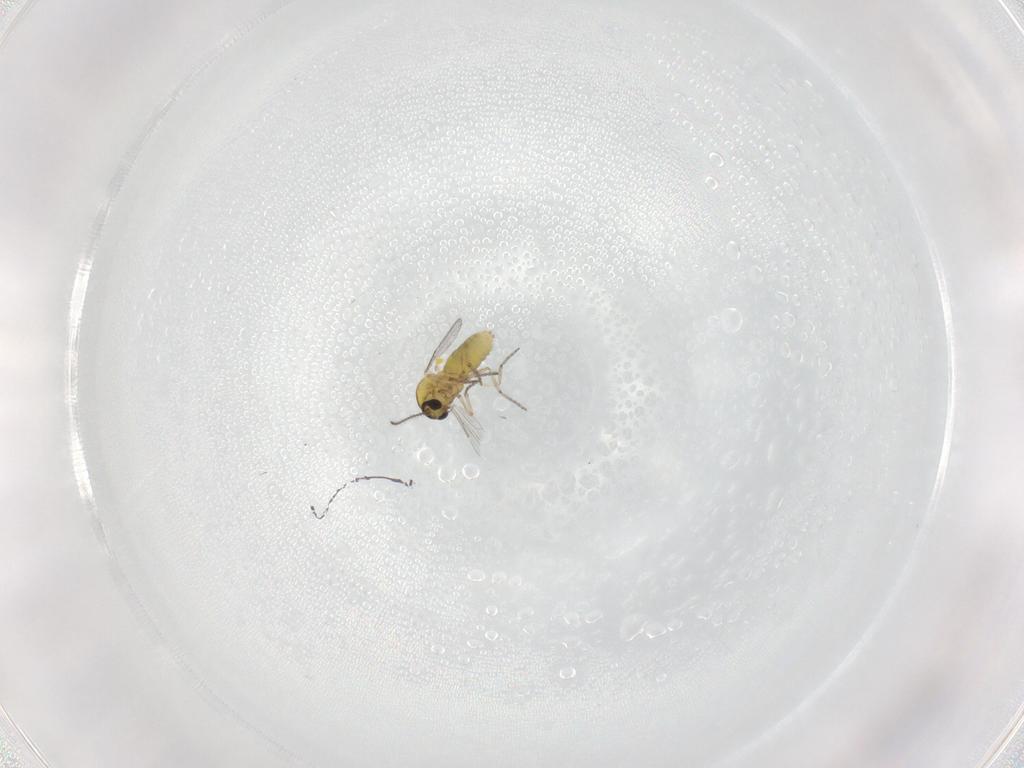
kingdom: Animalia
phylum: Arthropoda
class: Insecta
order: Diptera
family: Ceratopogonidae
